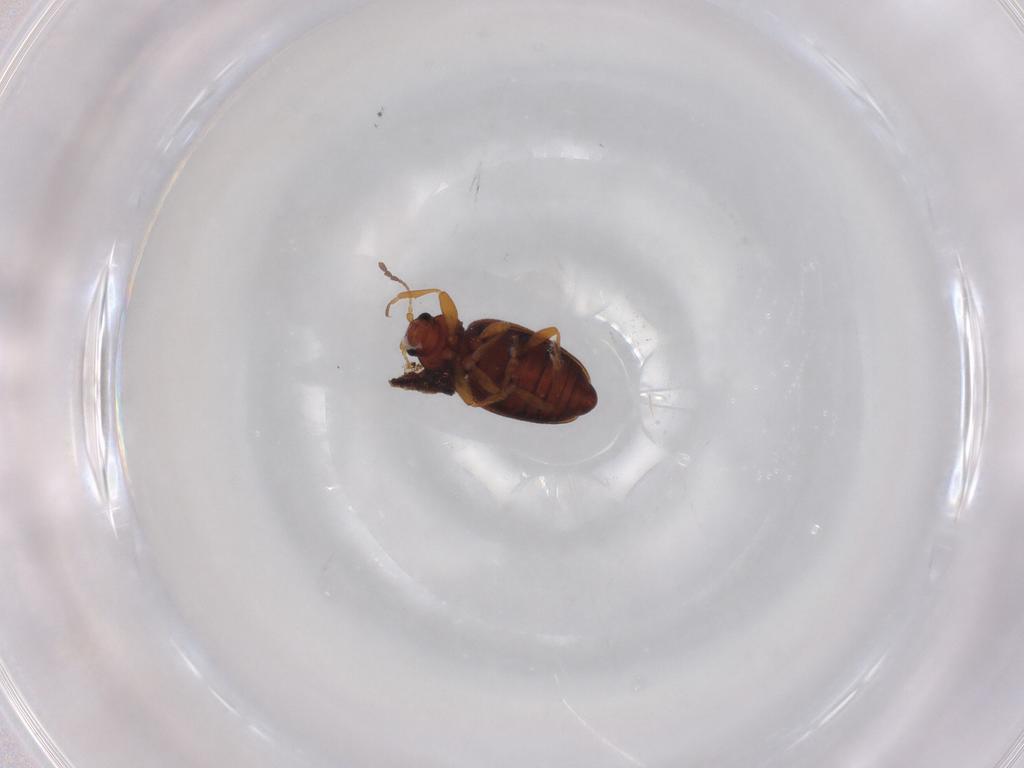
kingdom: Animalia
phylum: Arthropoda
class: Insecta
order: Coleoptera
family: Latridiidae
